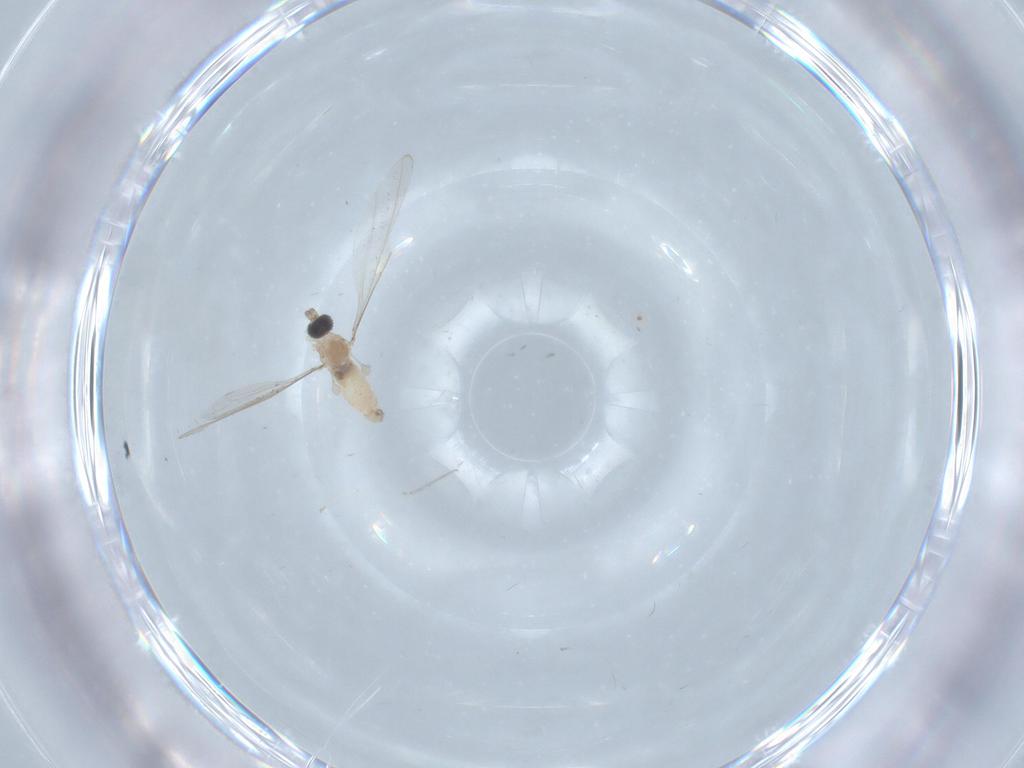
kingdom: Animalia
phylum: Arthropoda
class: Insecta
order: Diptera
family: Cecidomyiidae
